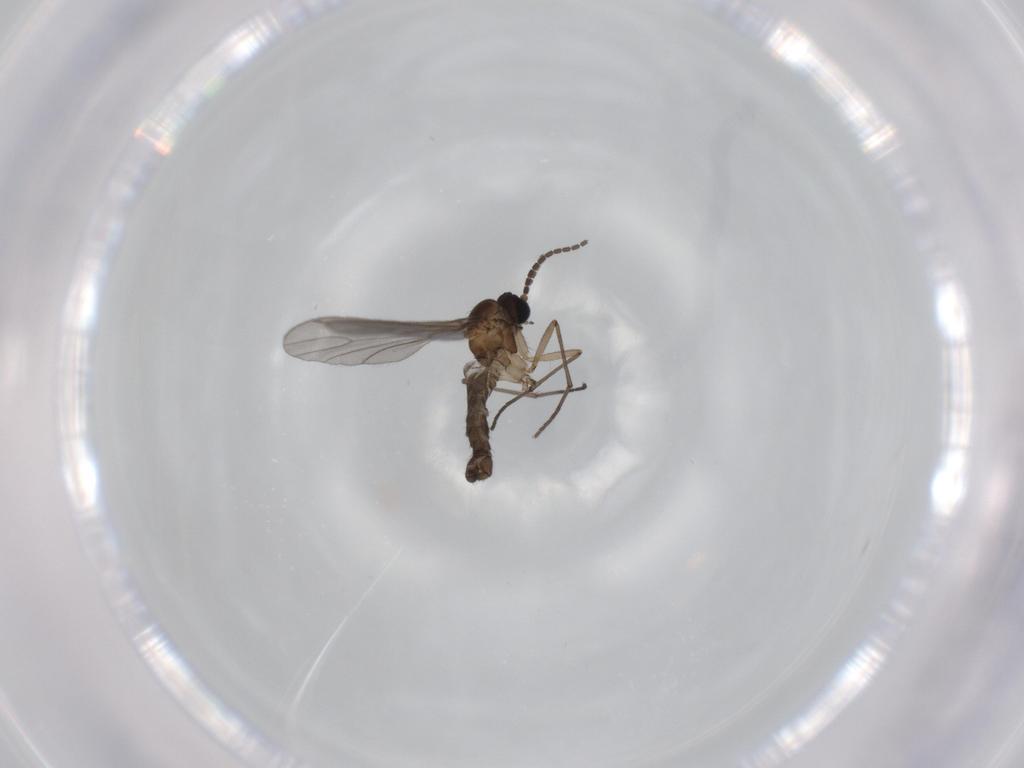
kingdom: Animalia
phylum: Arthropoda
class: Insecta
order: Diptera
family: Sciaridae
